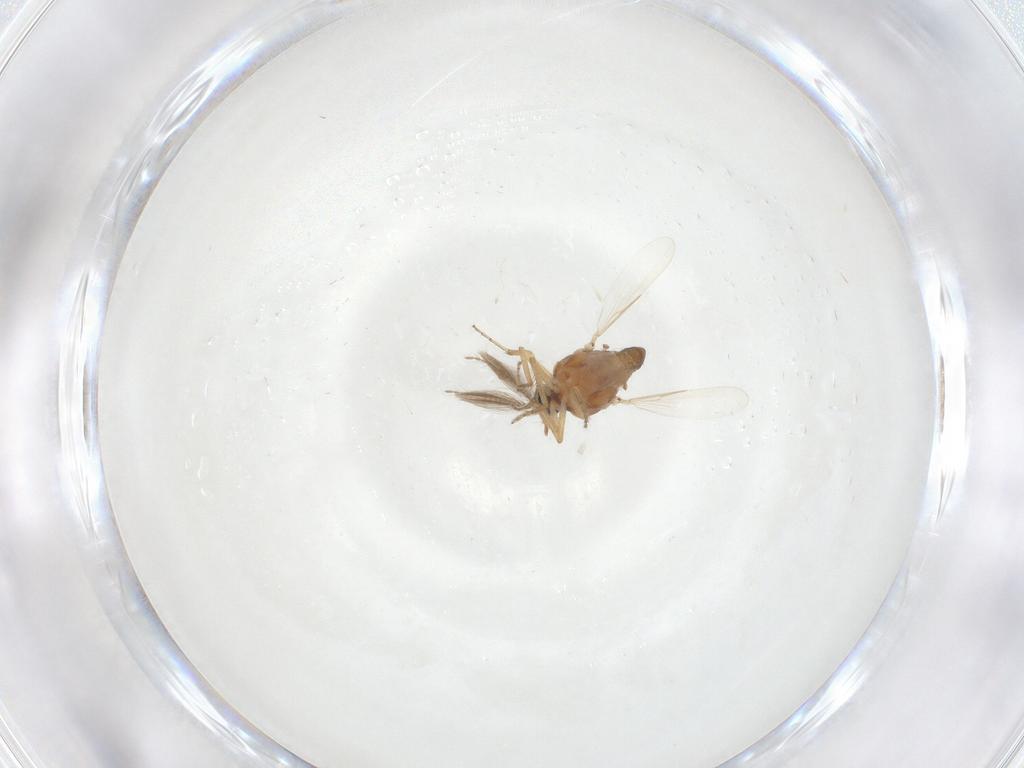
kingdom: Animalia
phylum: Arthropoda
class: Insecta
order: Diptera
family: Ceratopogonidae
